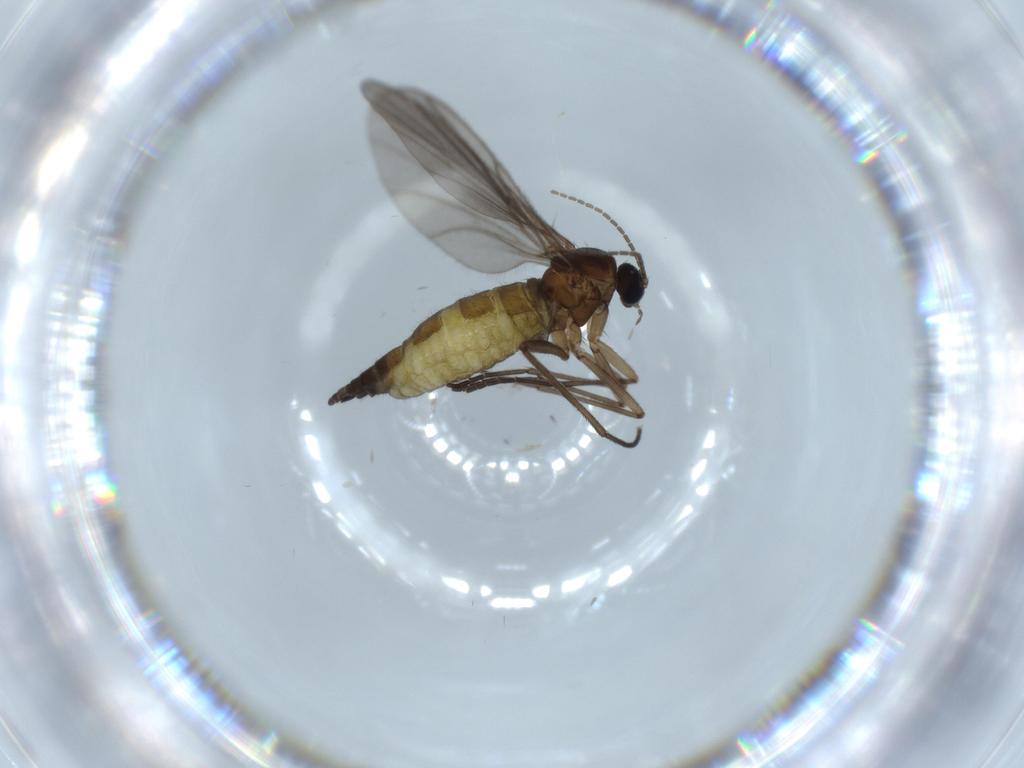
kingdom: Animalia
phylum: Arthropoda
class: Insecta
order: Diptera
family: Sciaridae
